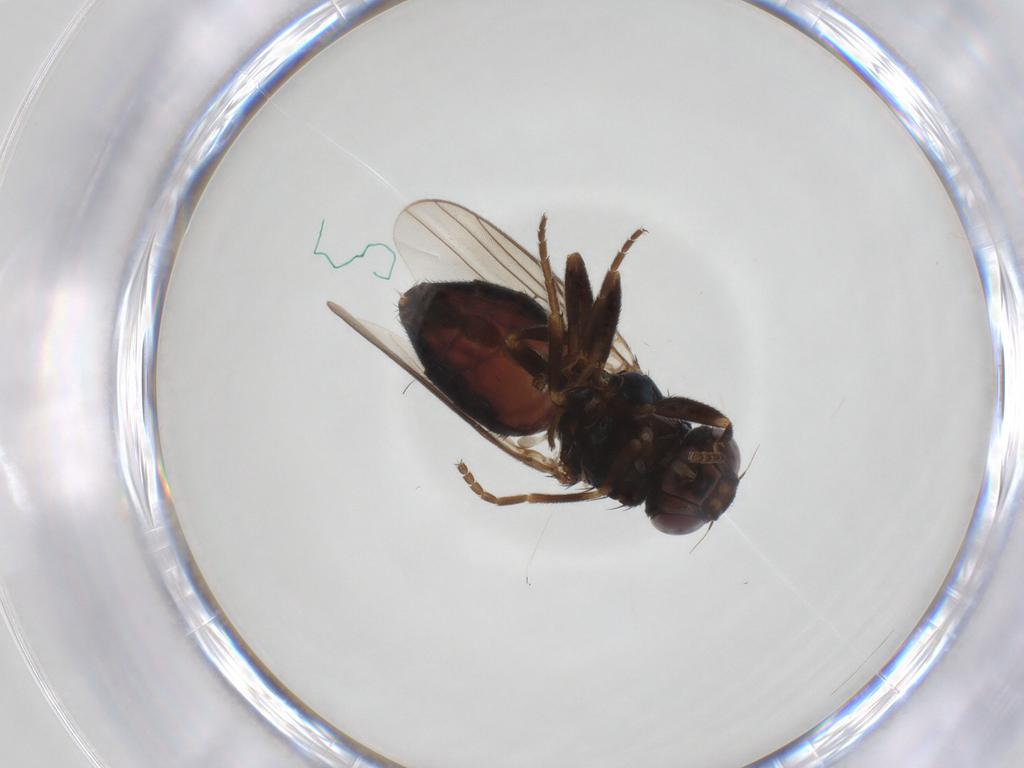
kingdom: Animalia
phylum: Arthropoda
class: Insecta
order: Diptera
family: Chloropidae
